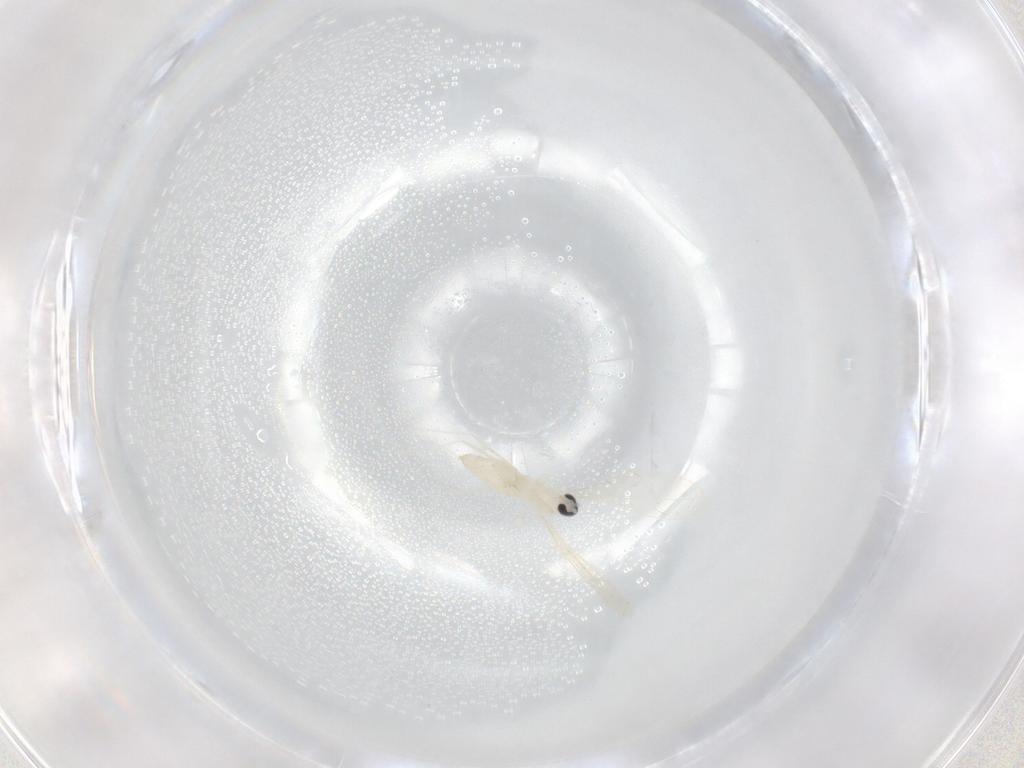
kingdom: Animalia
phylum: Arthropoda
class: Insecta
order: Diptera
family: Cecidomyiidae
